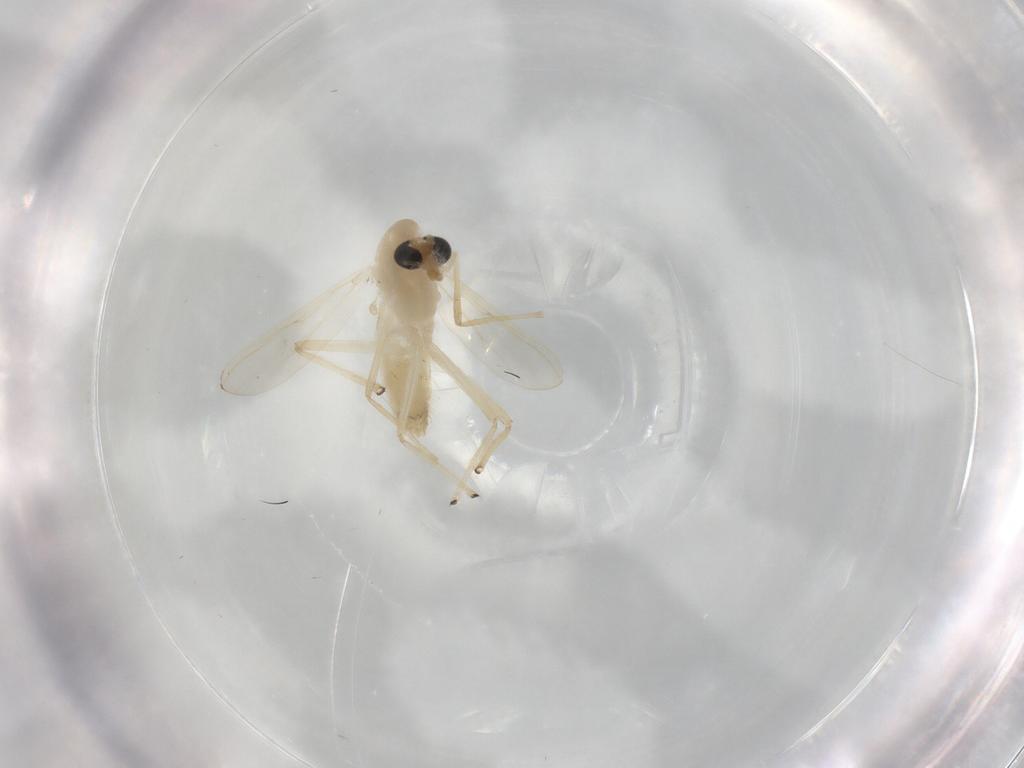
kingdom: Animalia
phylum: Arthropoda
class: Insecta
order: Diptera
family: Chironomidae
